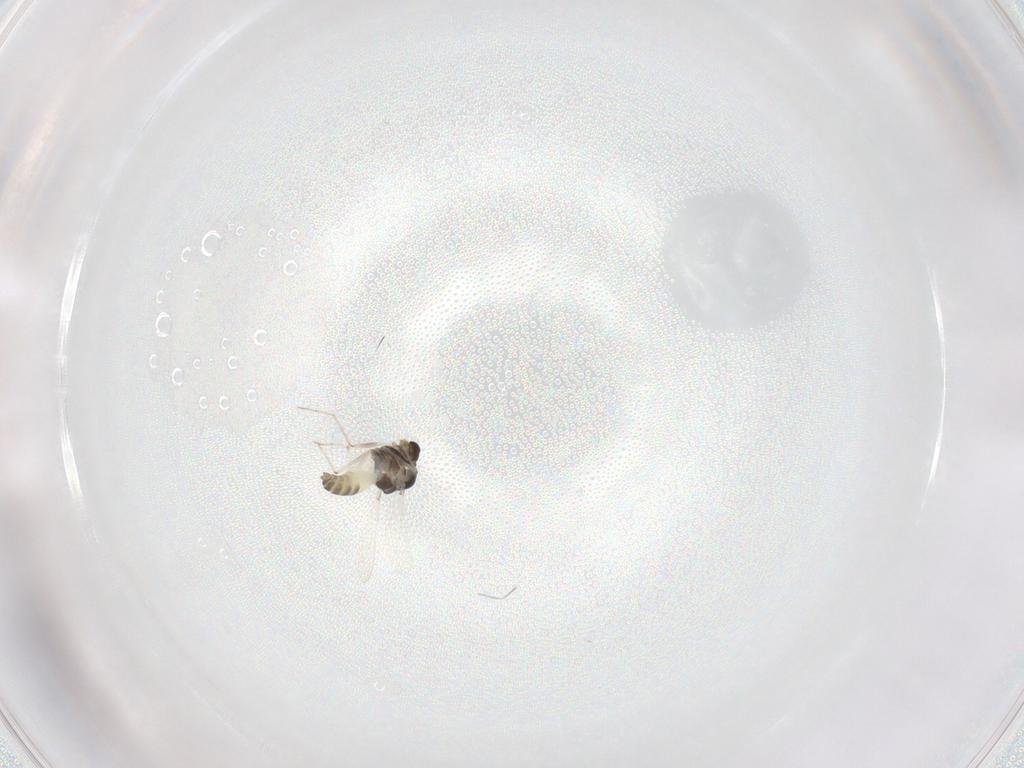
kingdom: Animalia
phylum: Arthropoda
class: Insecta
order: Diptera
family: Chironomidae
